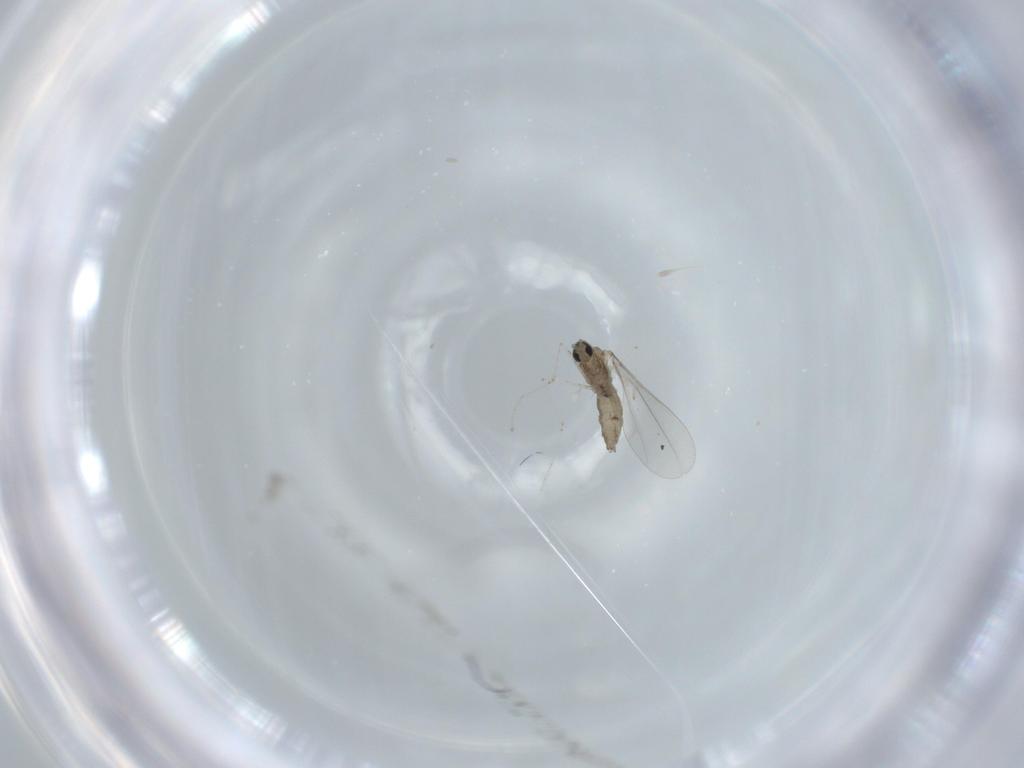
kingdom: Animalia
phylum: Arthropoda
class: Insecta
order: Diptera
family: Cecidomyiidae
